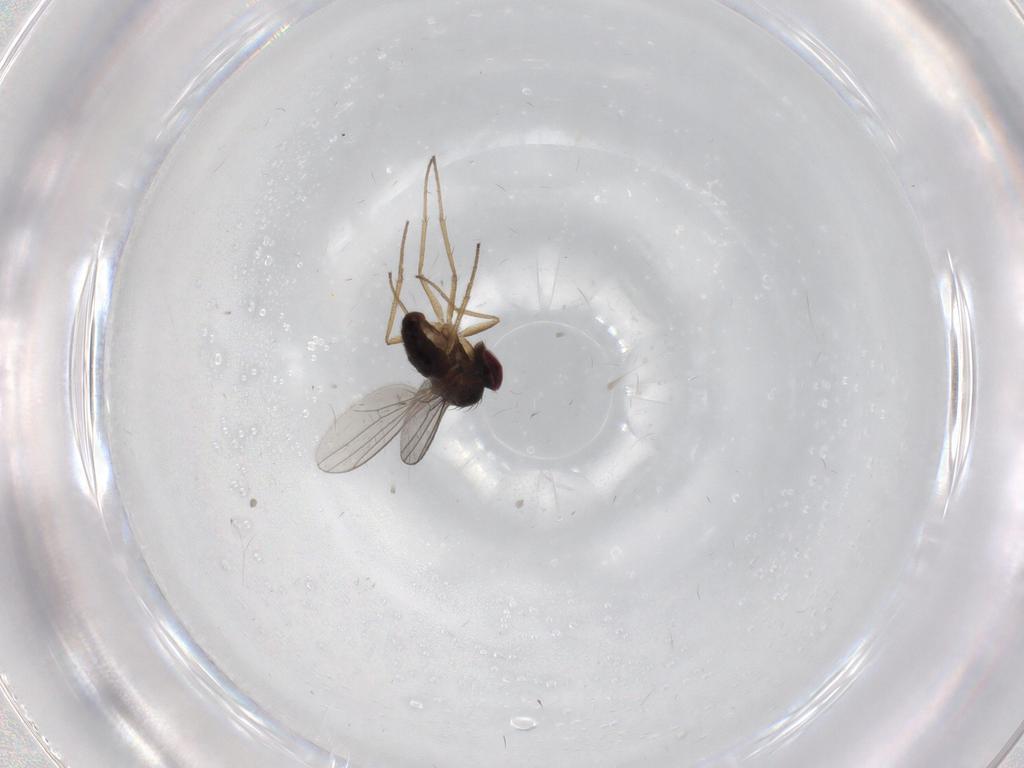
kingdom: Animalia
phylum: Arthropoda
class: Insecta
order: Diptera
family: Dolichopodidae
